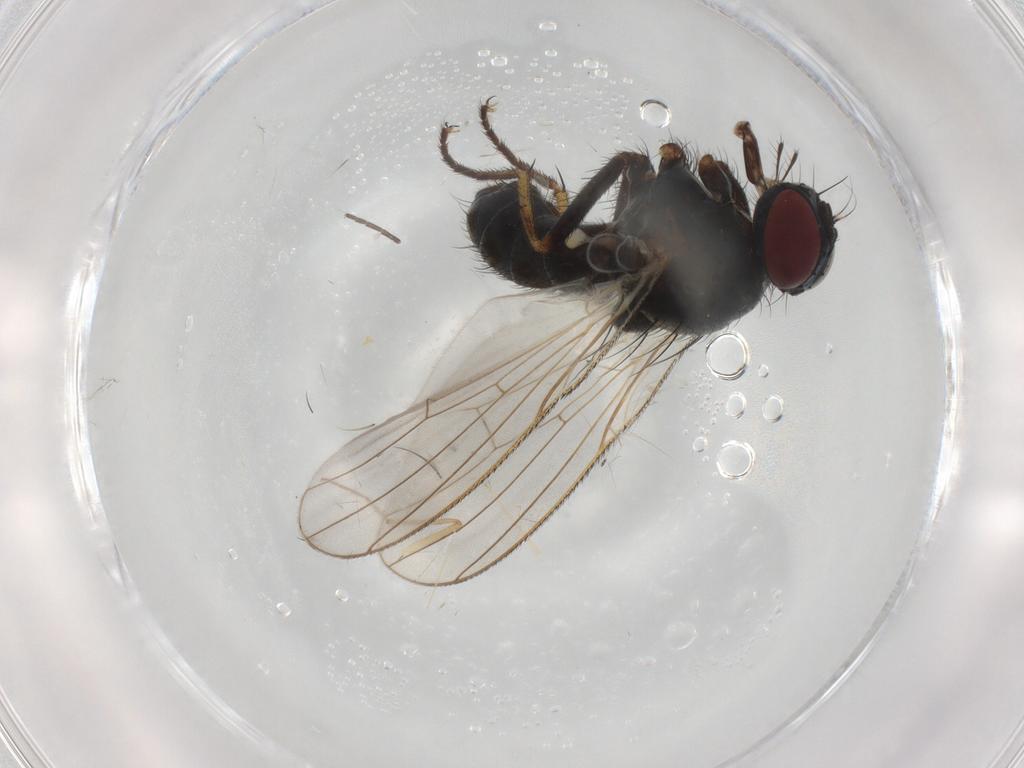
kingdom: Animalia
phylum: Arthropoda
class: Insecta
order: Diptera
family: Chironomidae
